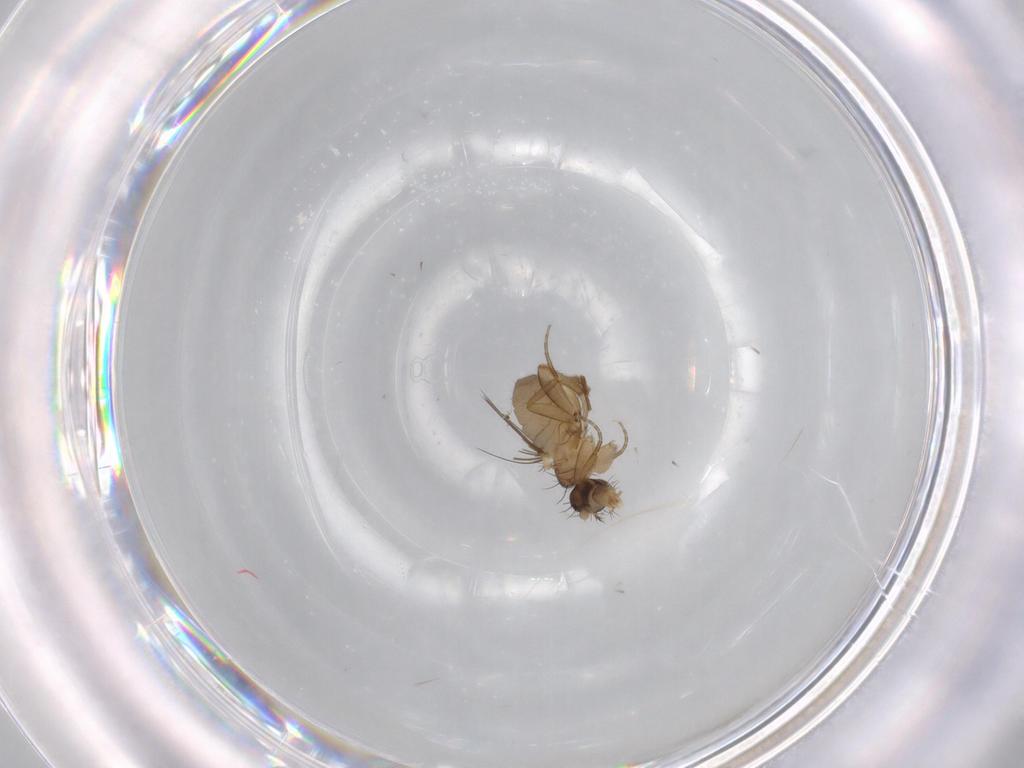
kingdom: Animalia
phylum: Arthropoda
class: Insecta
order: Diptera
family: Phoridae
